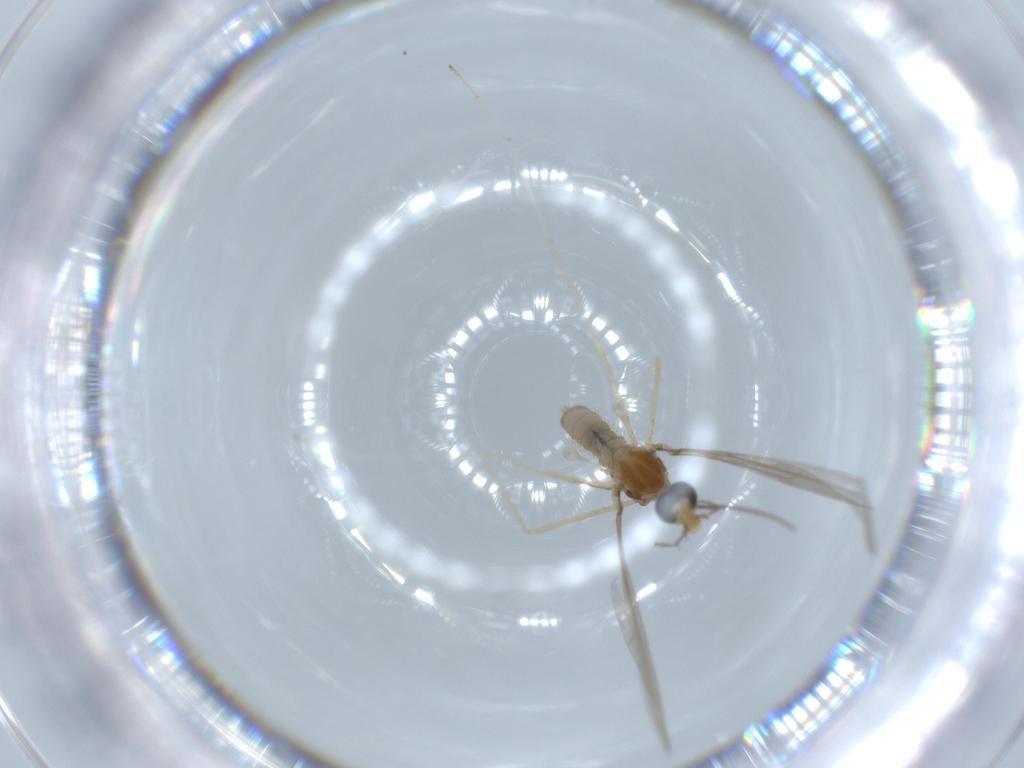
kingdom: Animalia
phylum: Arthropoda
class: Insecta
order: Diptera
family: Cecidomyiidae
